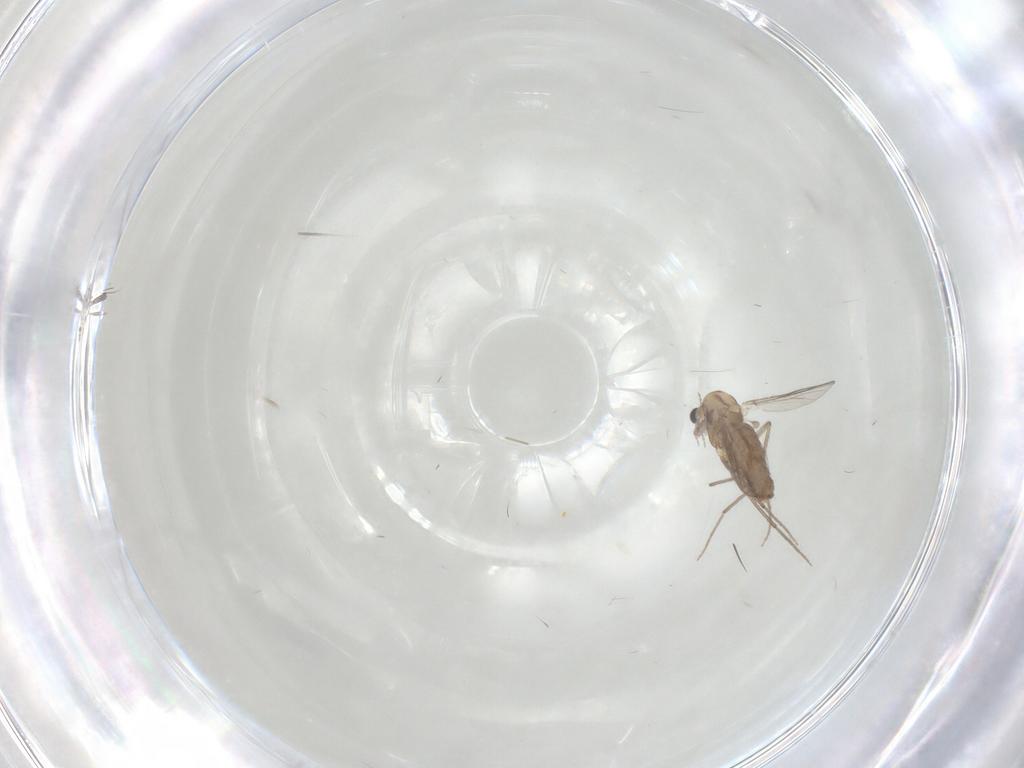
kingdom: Animalia
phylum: Arthropoda
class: Insecta
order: Diptera
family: Chironomidae
